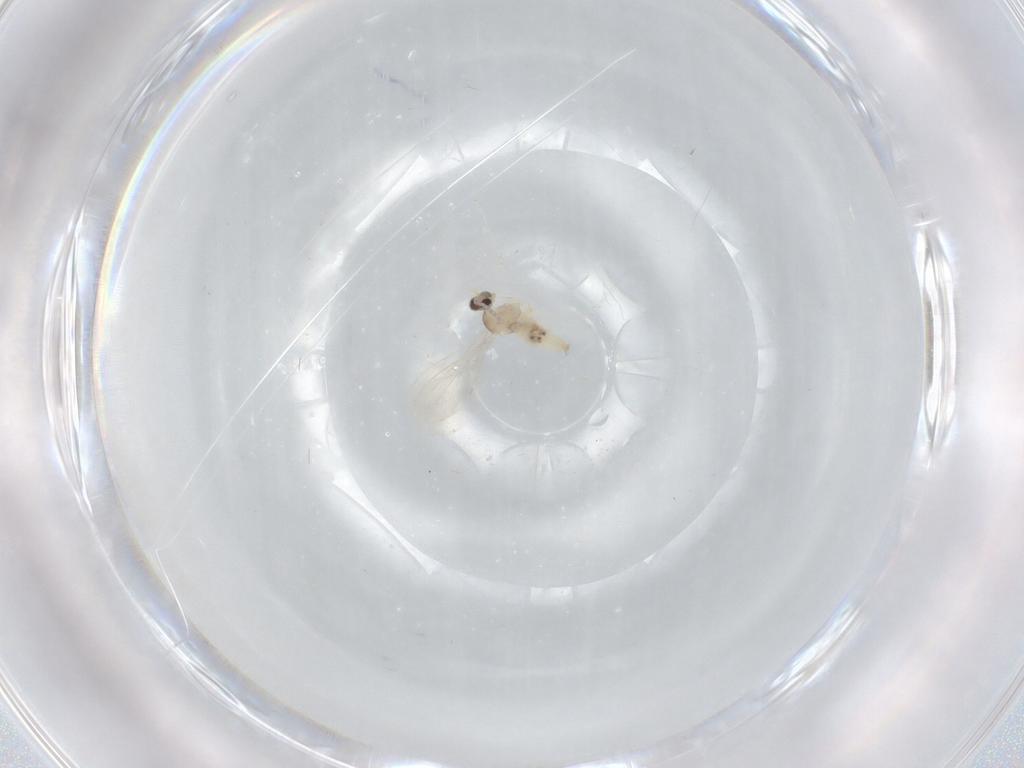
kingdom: Animalia
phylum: Arthropoda
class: Insecta
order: Diptera
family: Cecidomyiidae
